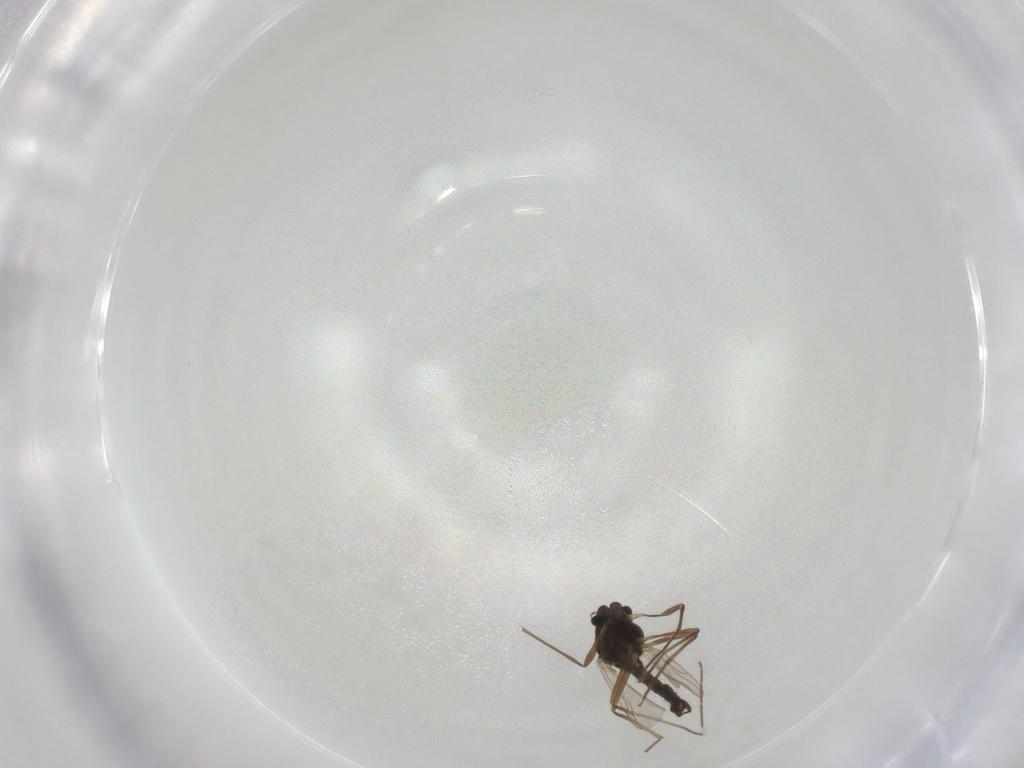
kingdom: Animalia
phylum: Arthropoda
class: Insecta
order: Diptera
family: Chironomidae
